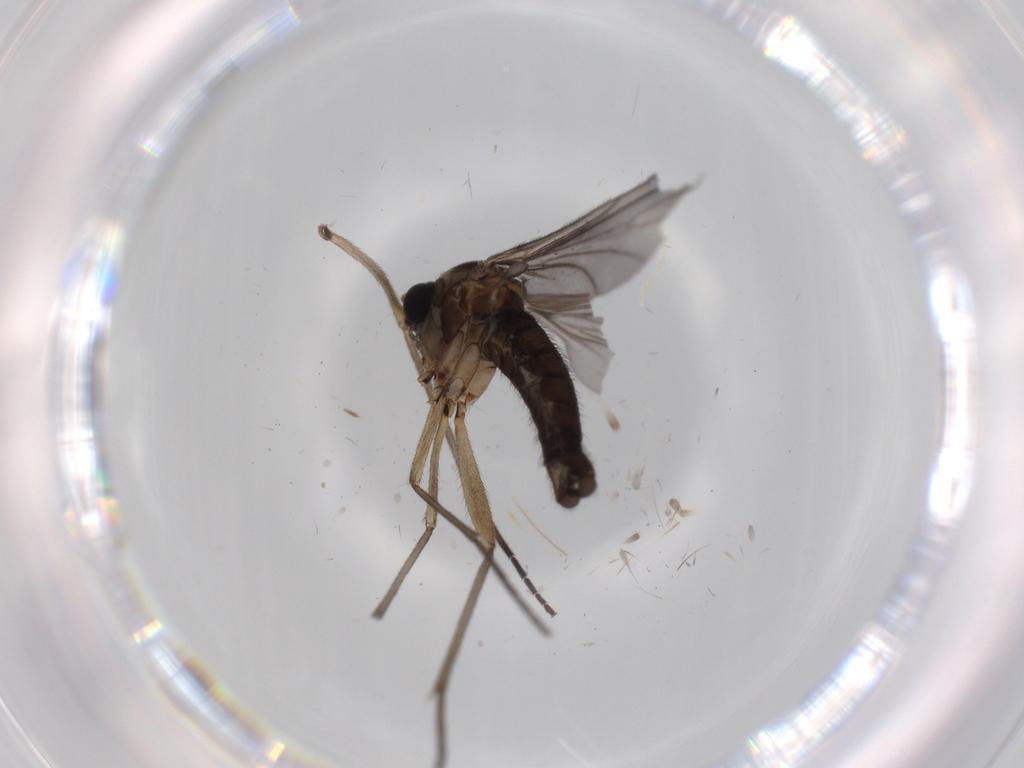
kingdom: Animalia
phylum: Arthropoda
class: Insecta
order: Diptera
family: Sciaridae
